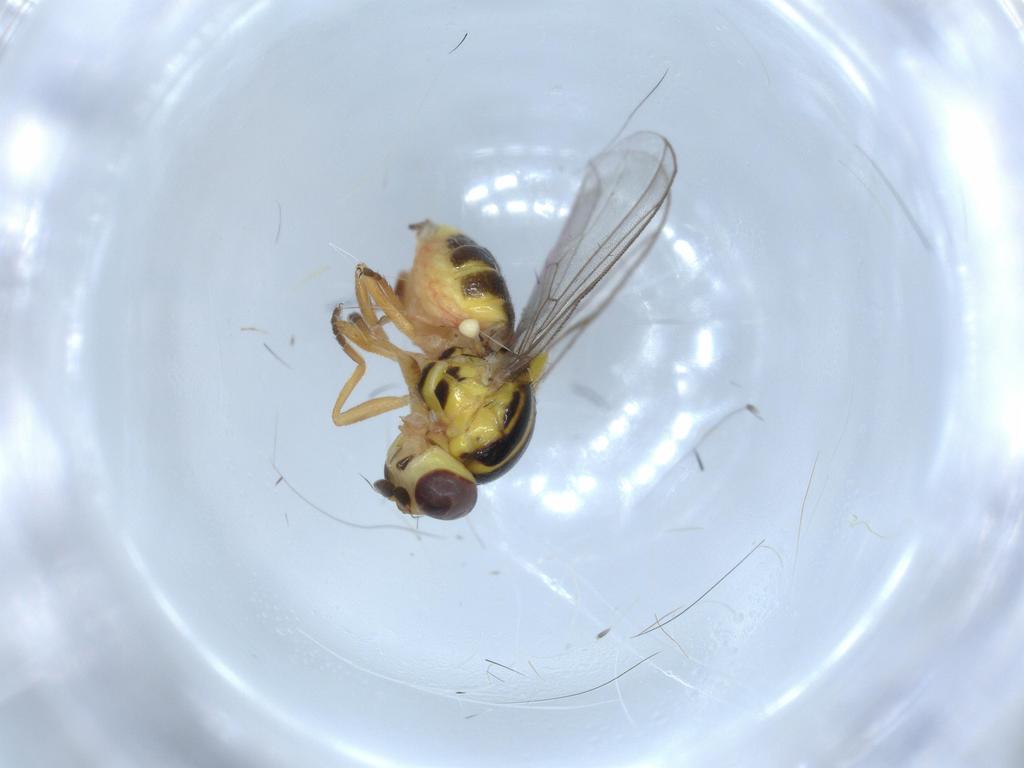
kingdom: Animalia
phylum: Arthropoda
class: Insecta
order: Diptera
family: Chloropidae
